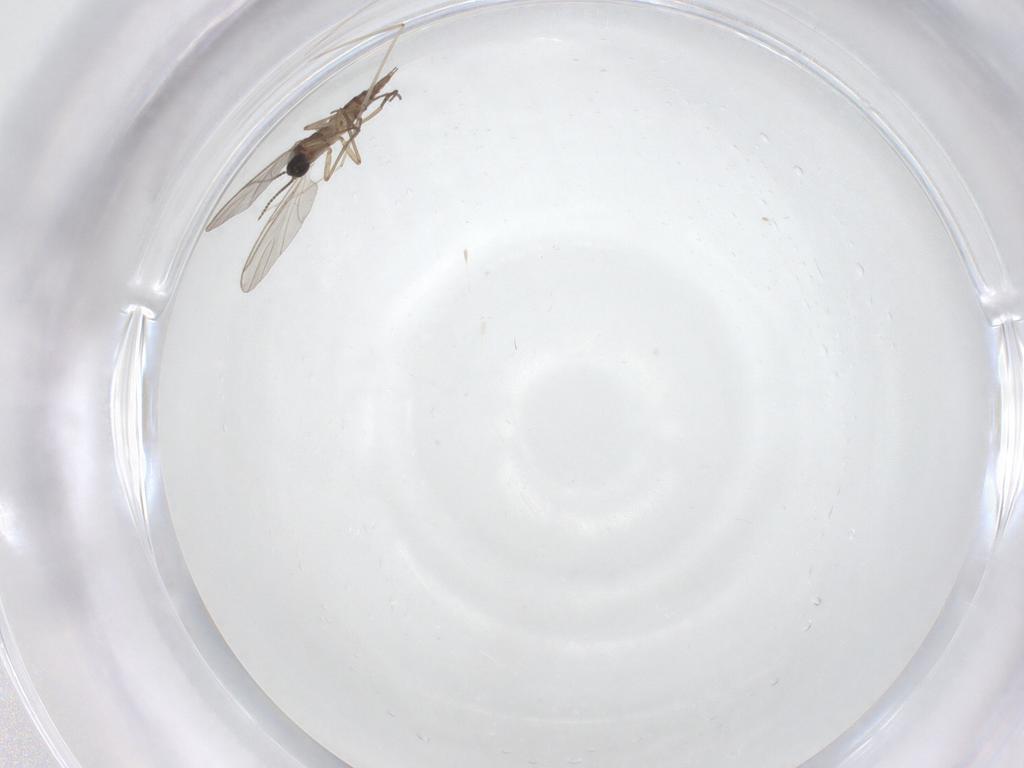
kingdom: Animalia
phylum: Arthropoda
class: Insecta
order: Diptera
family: Sciaridae
